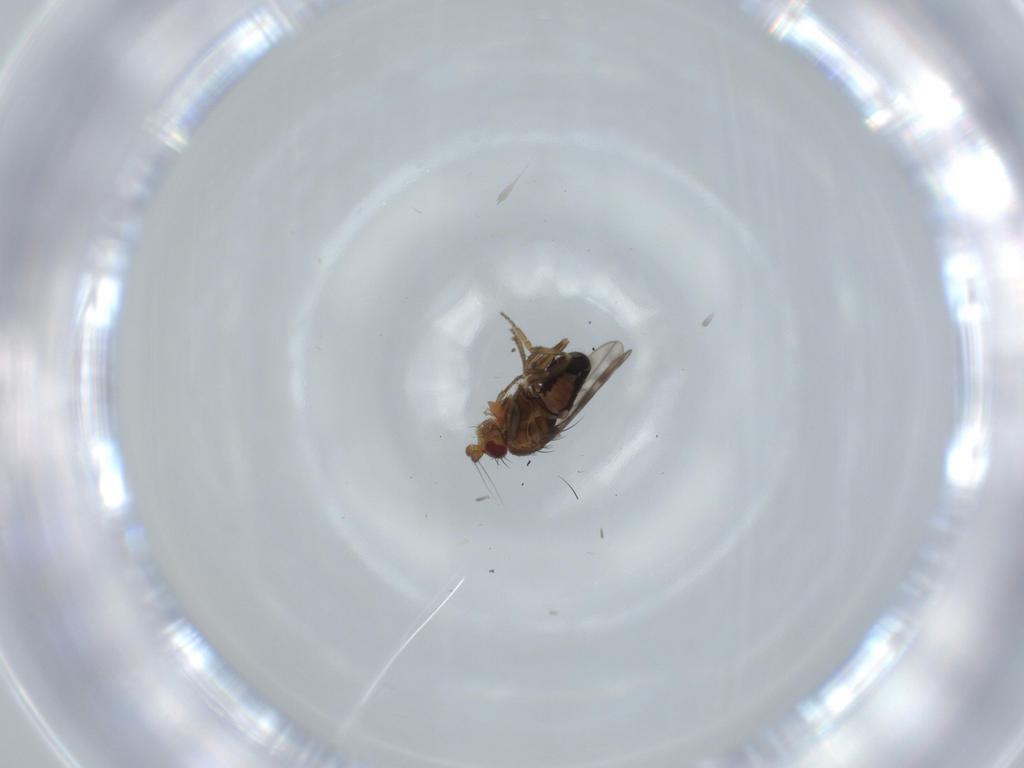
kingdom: Animalia
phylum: Arthropoda
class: Insecta
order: Diptera
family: Sphaeroceridae
